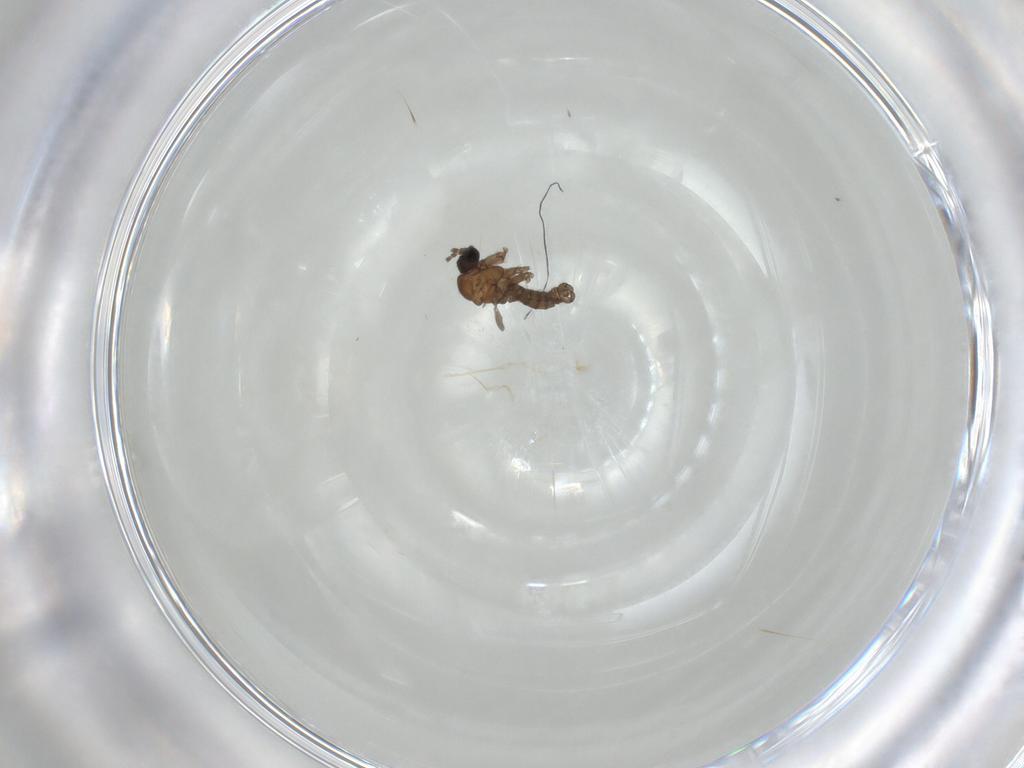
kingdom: Animalia
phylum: Arthropoda
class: Insecta
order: Diptera
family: Sciaridae
